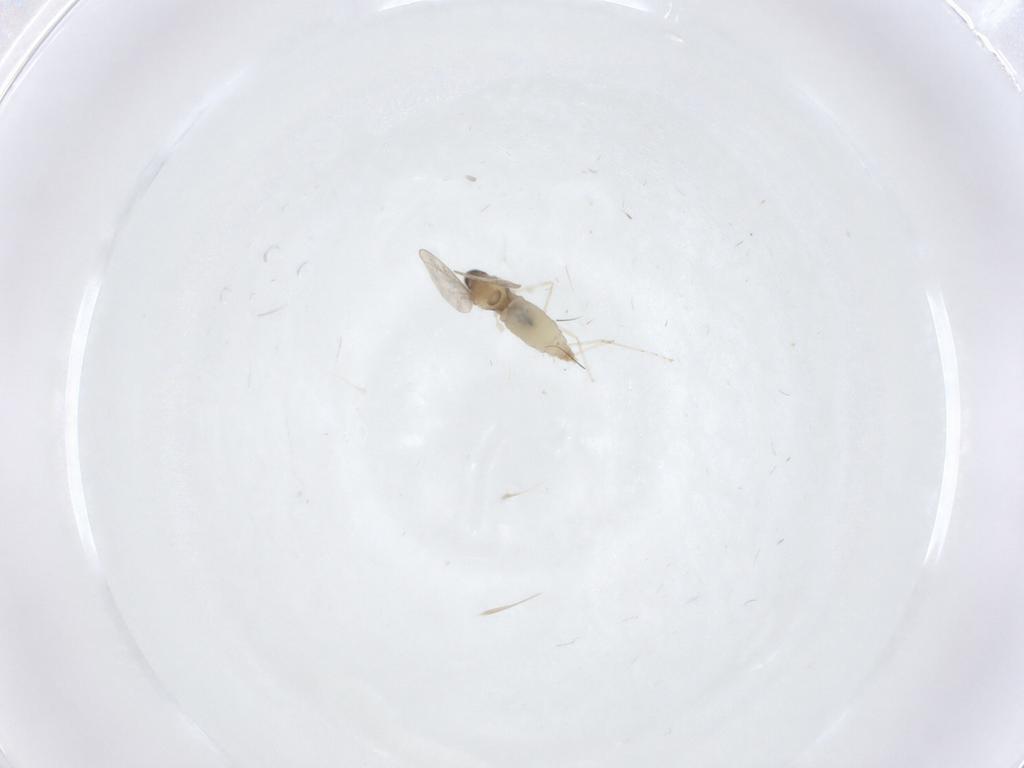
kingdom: Animalia
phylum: Arthropoda
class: Insecta
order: Diptera
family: Cecidomyiidae
